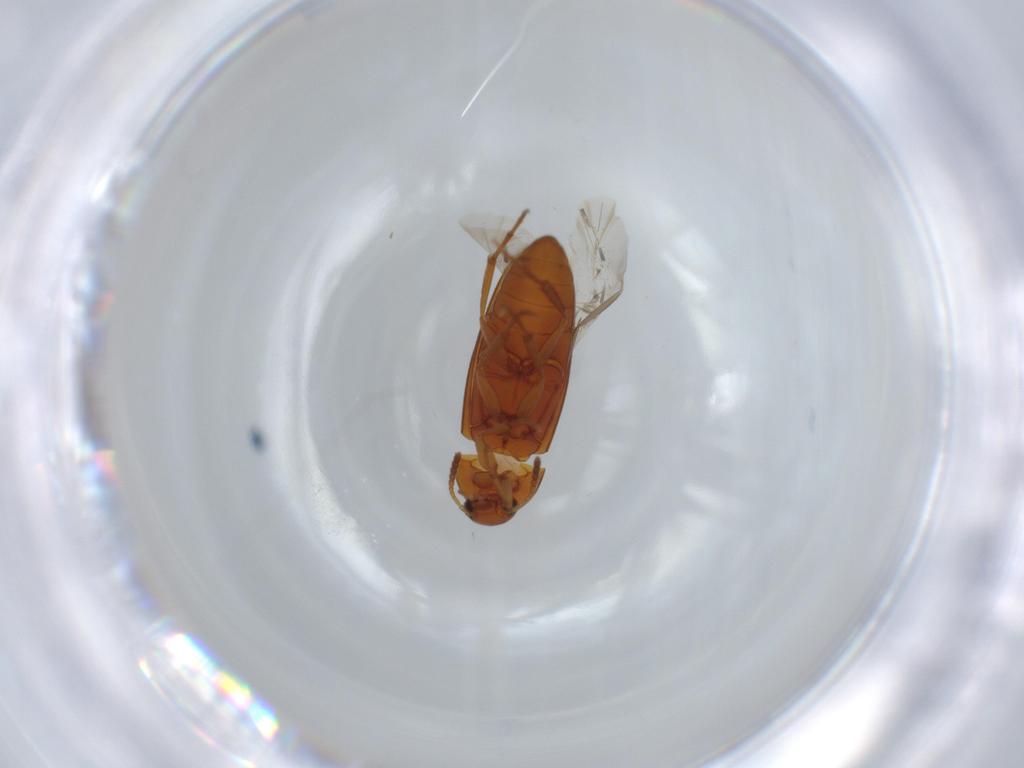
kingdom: Animalia
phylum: Arthropoda
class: Insecta
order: Coleoptera
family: Scraptiidae
